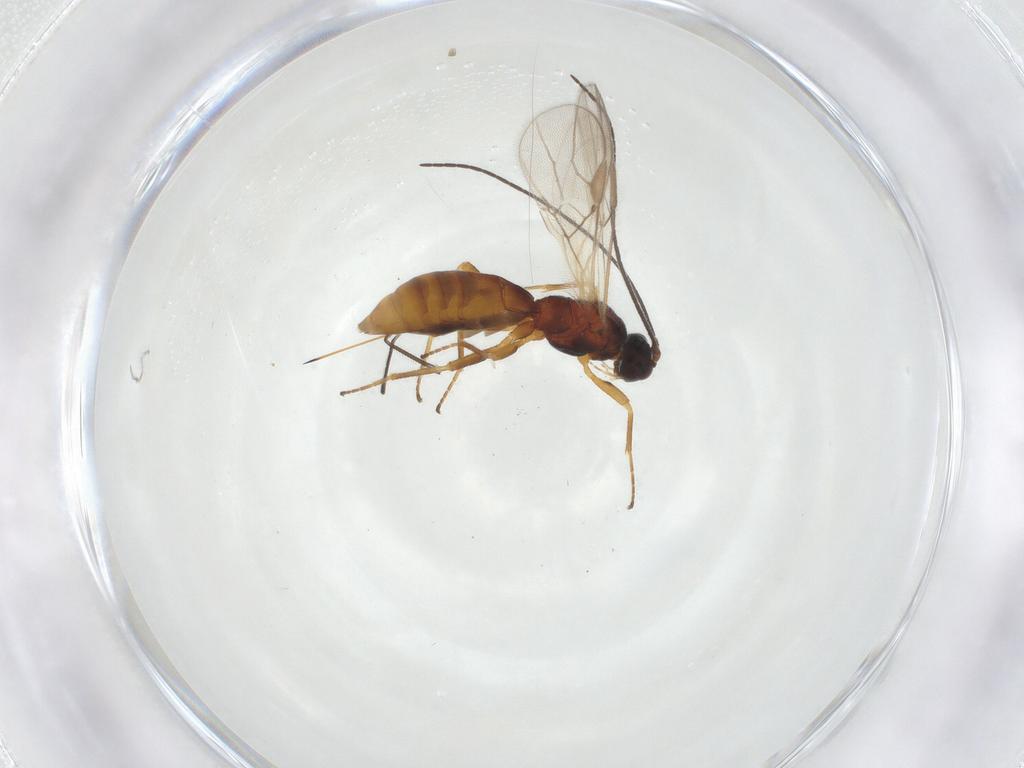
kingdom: Animalia
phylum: Arthropoda
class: Insecta
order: Hymenoptera
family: Braconidae
